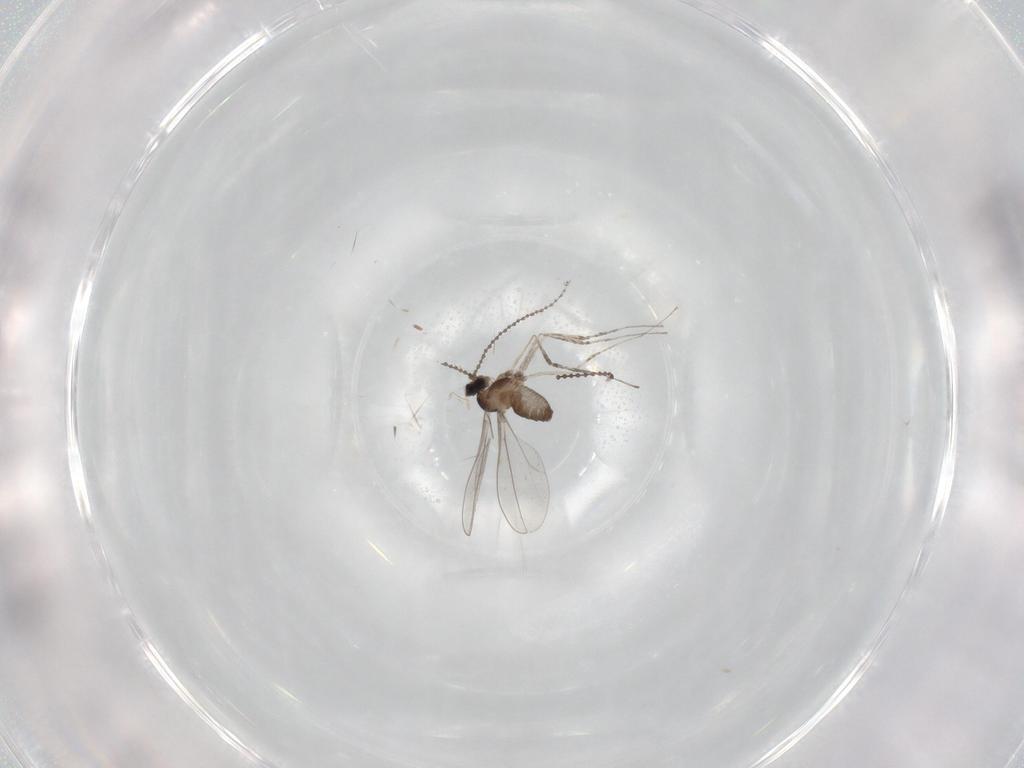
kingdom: Animalia
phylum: Arthropoda
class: Insecta
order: Diptera
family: Cecidomyiidae
